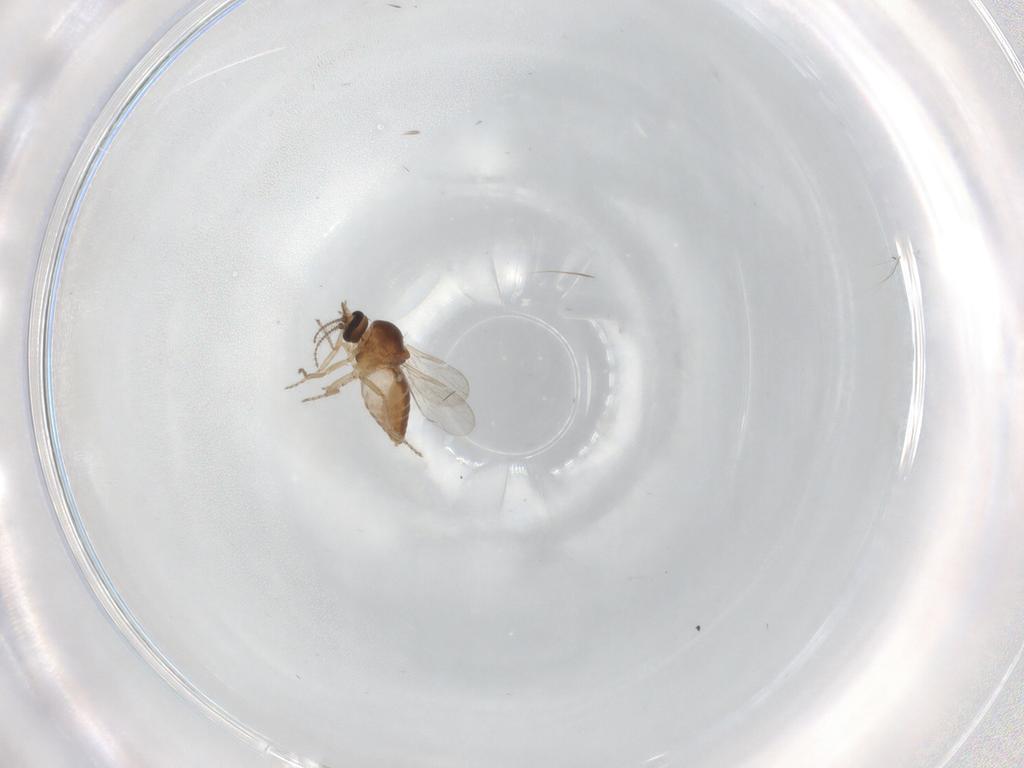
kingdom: Animalia
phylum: Arthropoda
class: Insecta
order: Diptera
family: Ceratopogonidae
